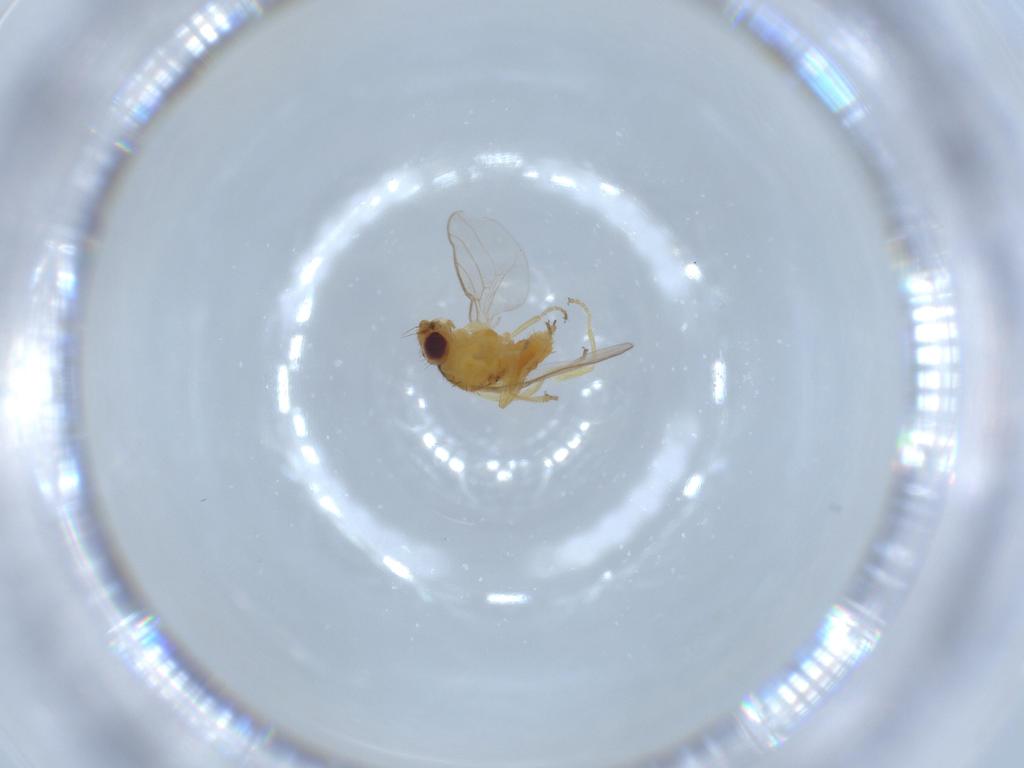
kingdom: Animalia
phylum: Arthropoda
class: Insecta
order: Diptera
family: Chloropidae
